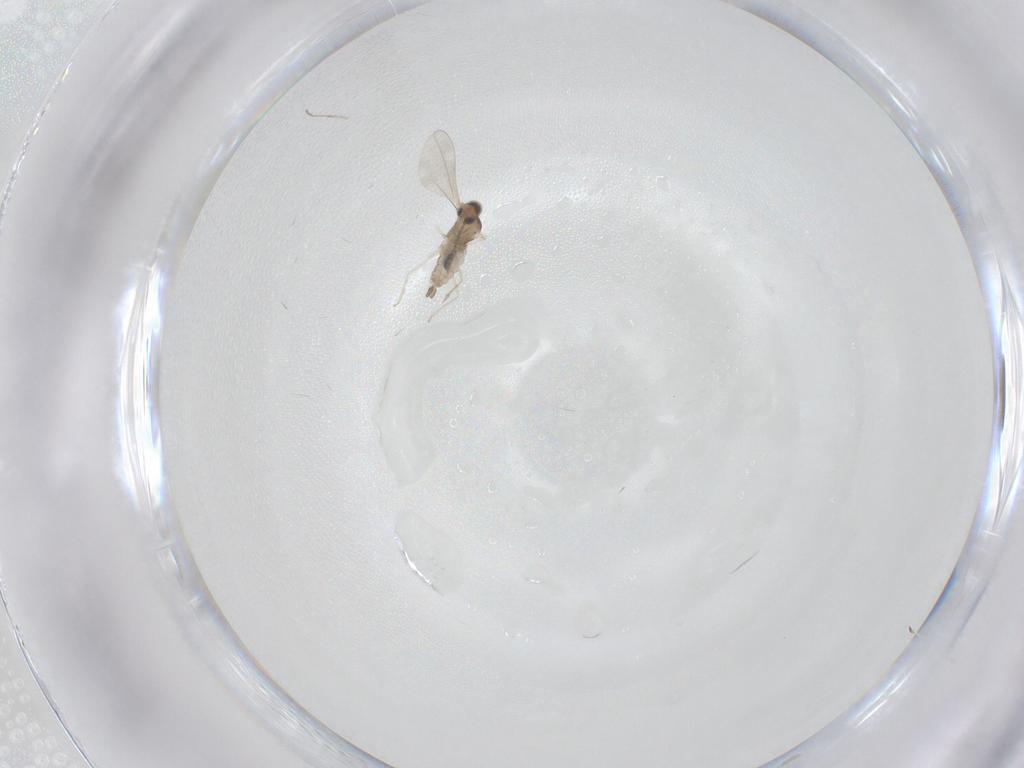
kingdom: Animalia
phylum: Arthropoda
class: Insecta
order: Diptera
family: Cecidomyiidae
